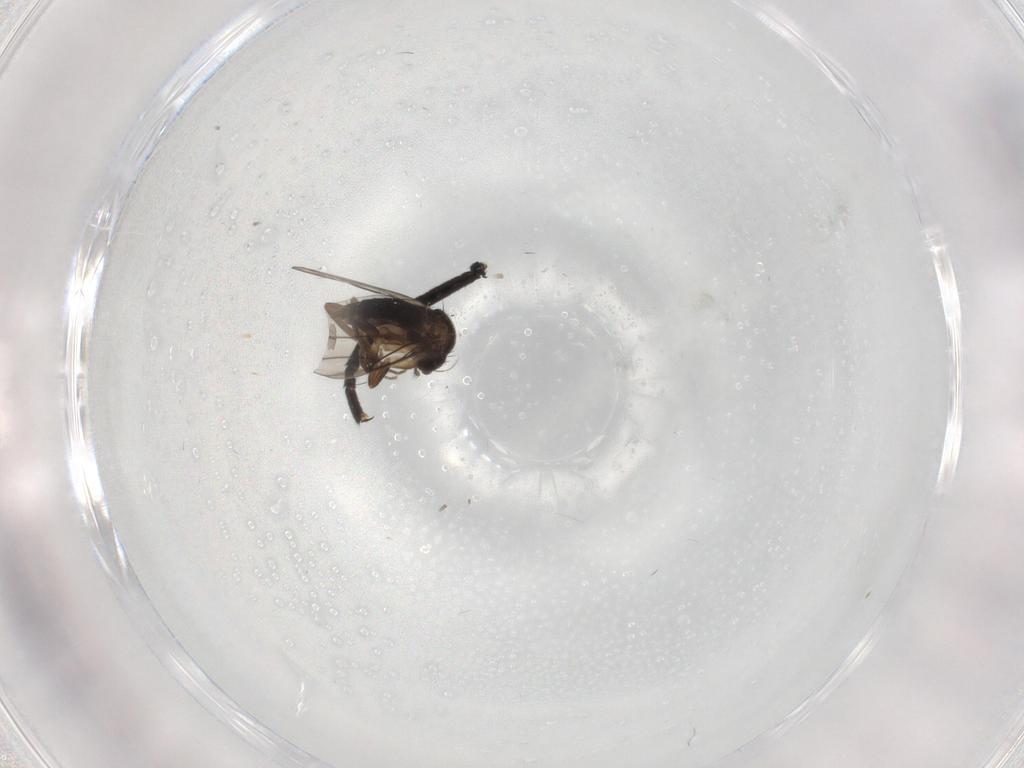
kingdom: Animalia
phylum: Arthropoda
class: Insecta
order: Diptera
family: Sciaridae
